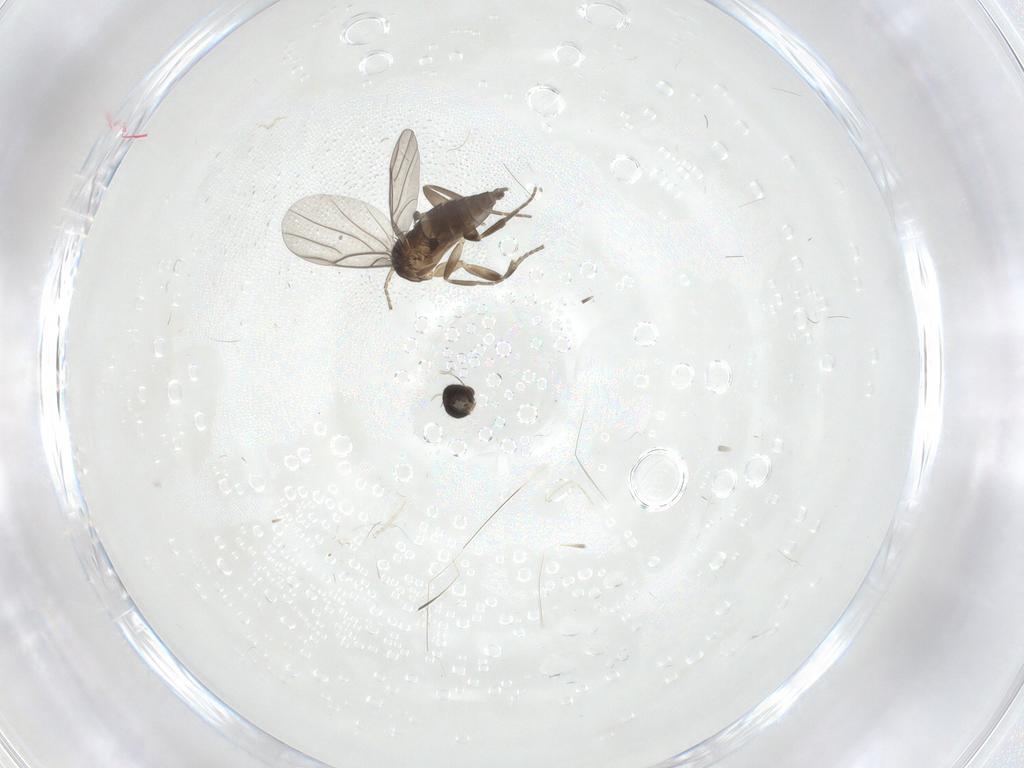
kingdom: Animalia
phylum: Arthropoda
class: Insecta
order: Diptera
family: Phoridae
